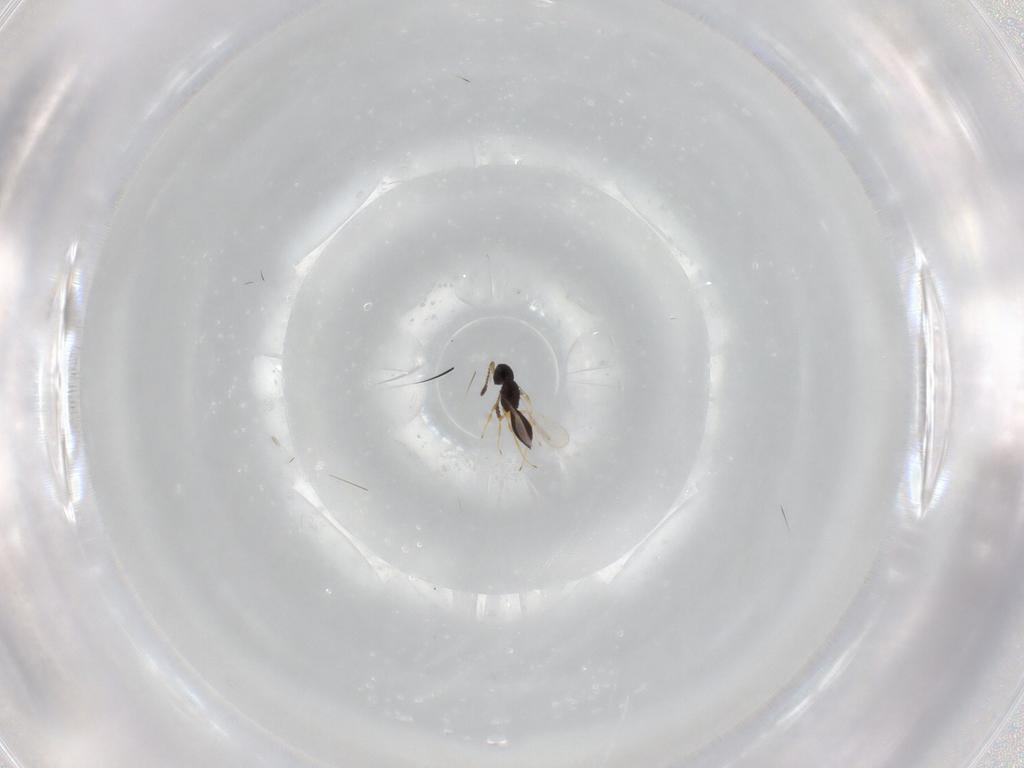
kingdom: Animalia
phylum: Arthropoda
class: Insecta
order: Hymenoptera
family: Scelionidae
